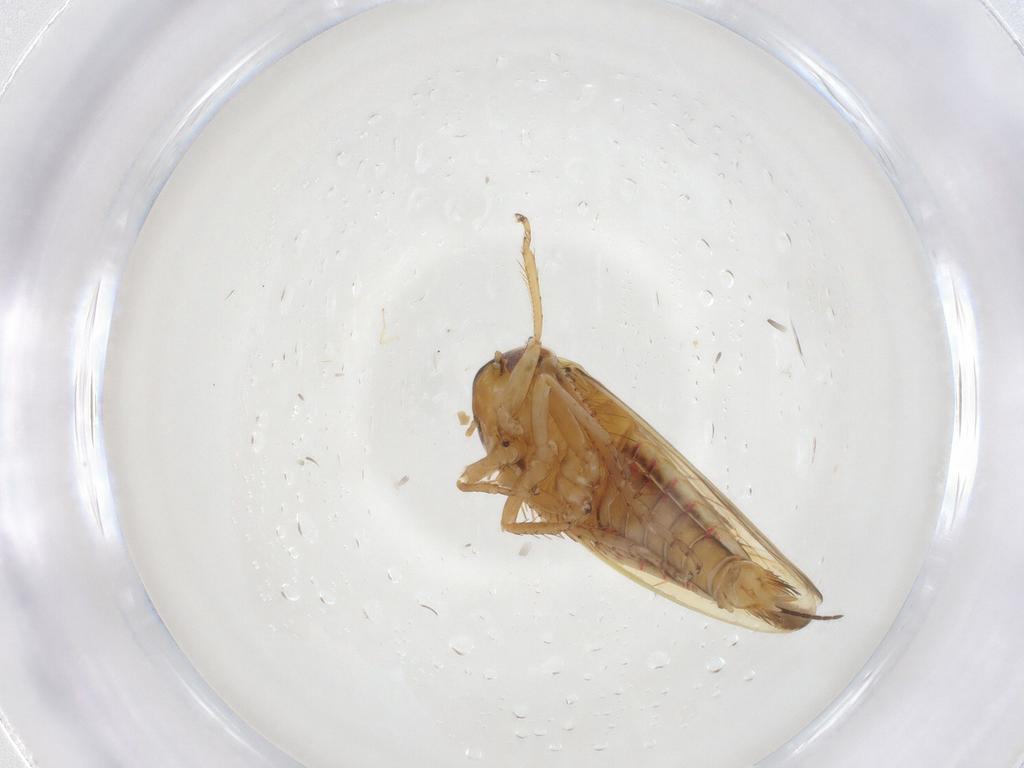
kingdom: Animalia
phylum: Arthropoda
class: Insecta
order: Hemiptera
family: Cicadellidae
